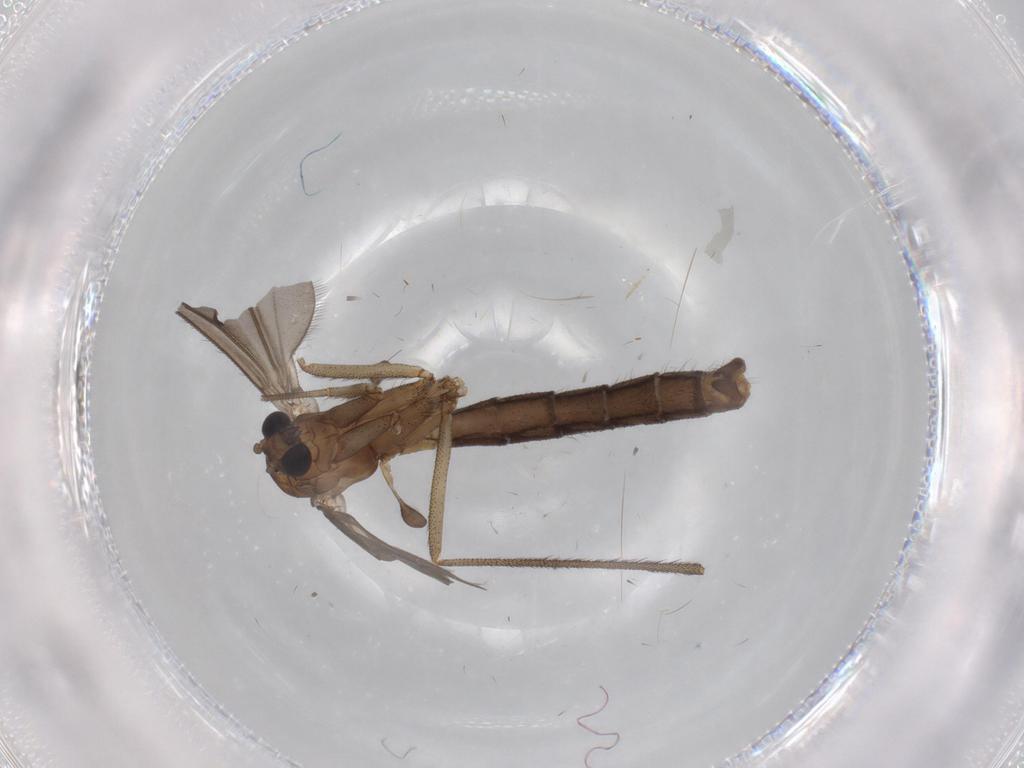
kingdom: Animalia
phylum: Arthropoda
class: Insecta
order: Diptera
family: Cecidomyiidae
